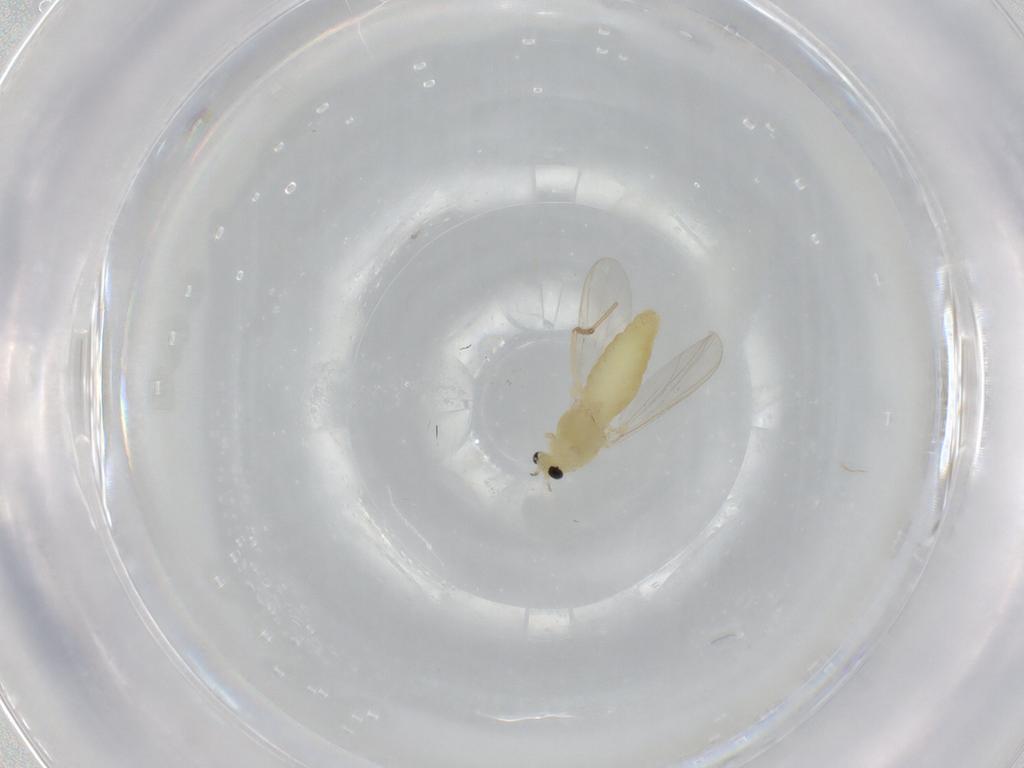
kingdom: Animalia
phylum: Arthropoda
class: Insecta
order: Diptera
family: Chironomidae
